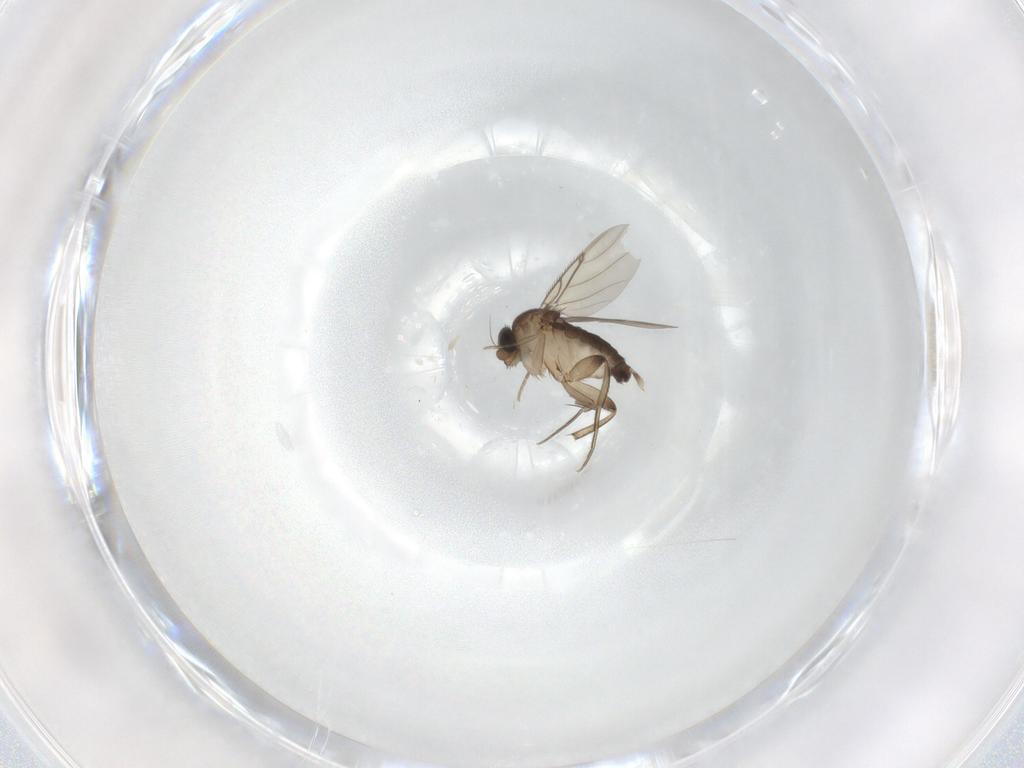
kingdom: Animalia
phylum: Arthropoda
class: Insecta
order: Diptera
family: Phoridae
